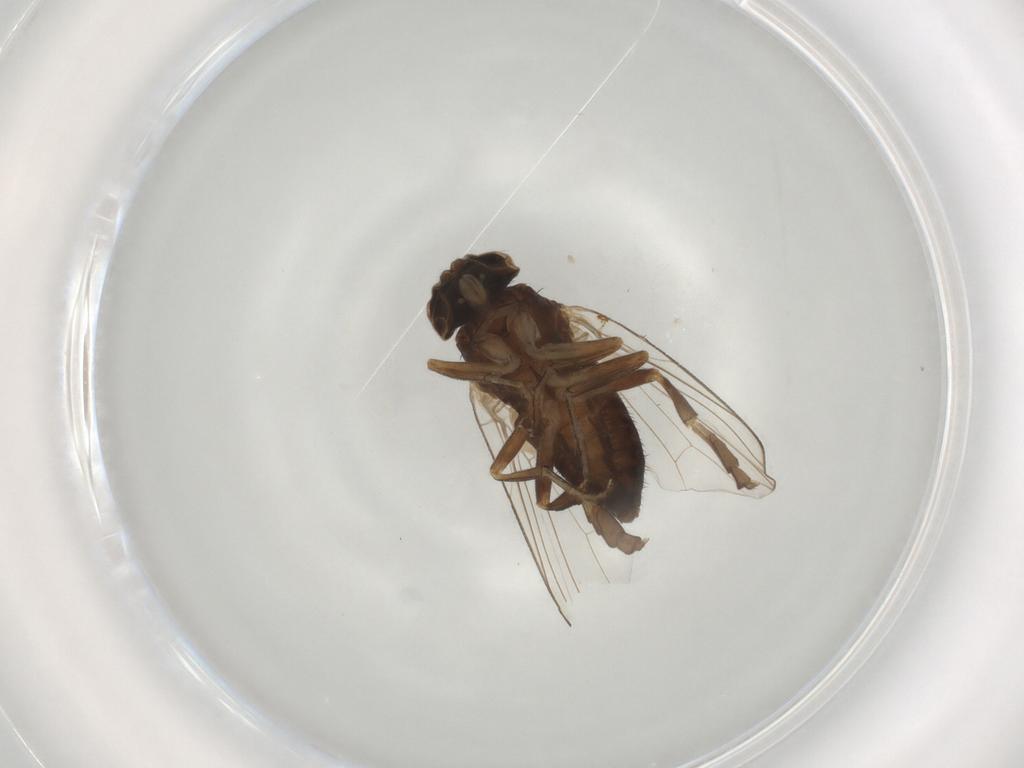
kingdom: Animalia
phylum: Arthropoda
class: Insecta
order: Diptera
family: Platypezidae
